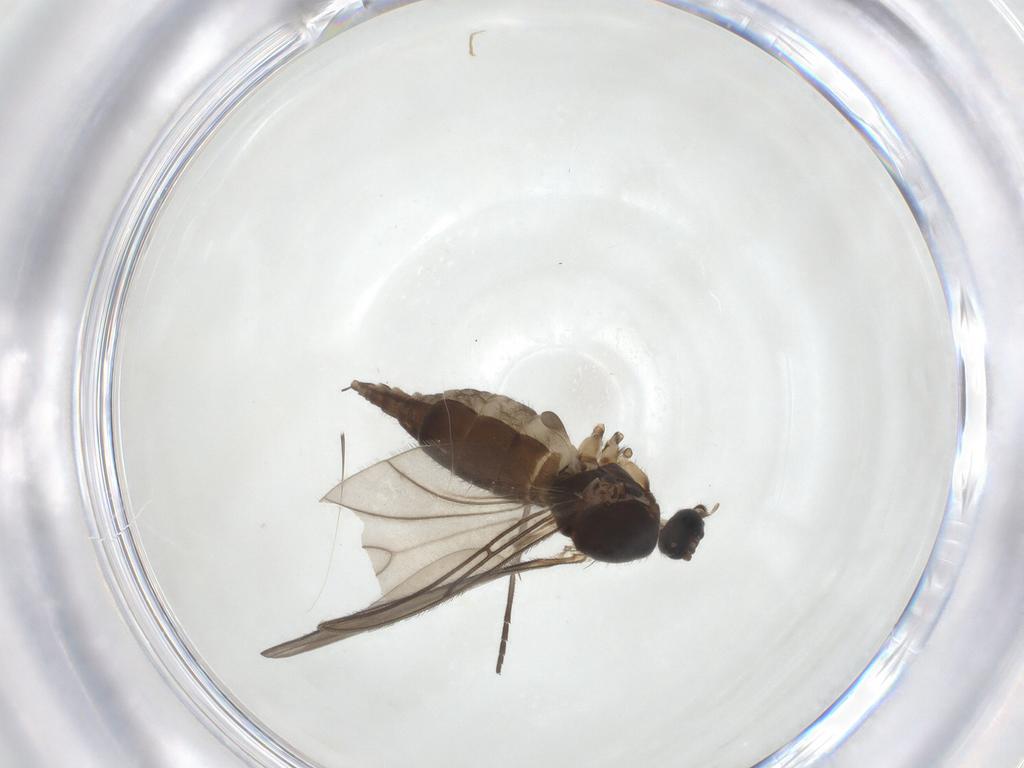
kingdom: Animalia
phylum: Arthropoda
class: Insecta
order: Diptera
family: Sciaridae
